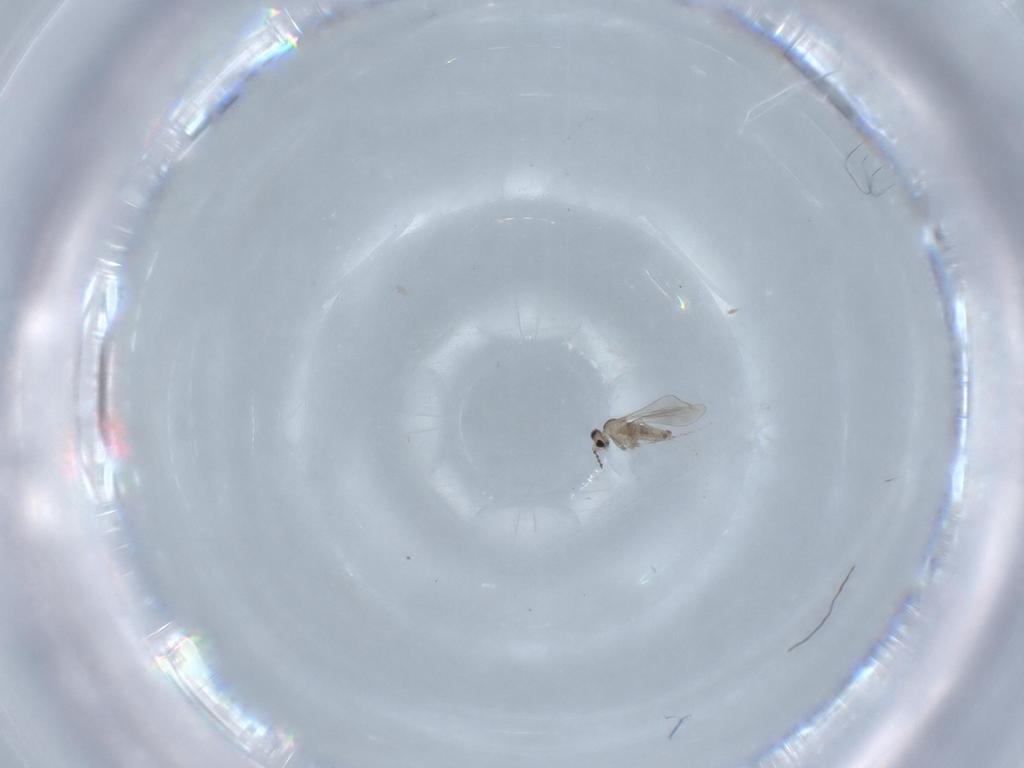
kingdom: Animalia
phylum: Arthropoda
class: Insecta
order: Diptera
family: Cecidomyiidae
